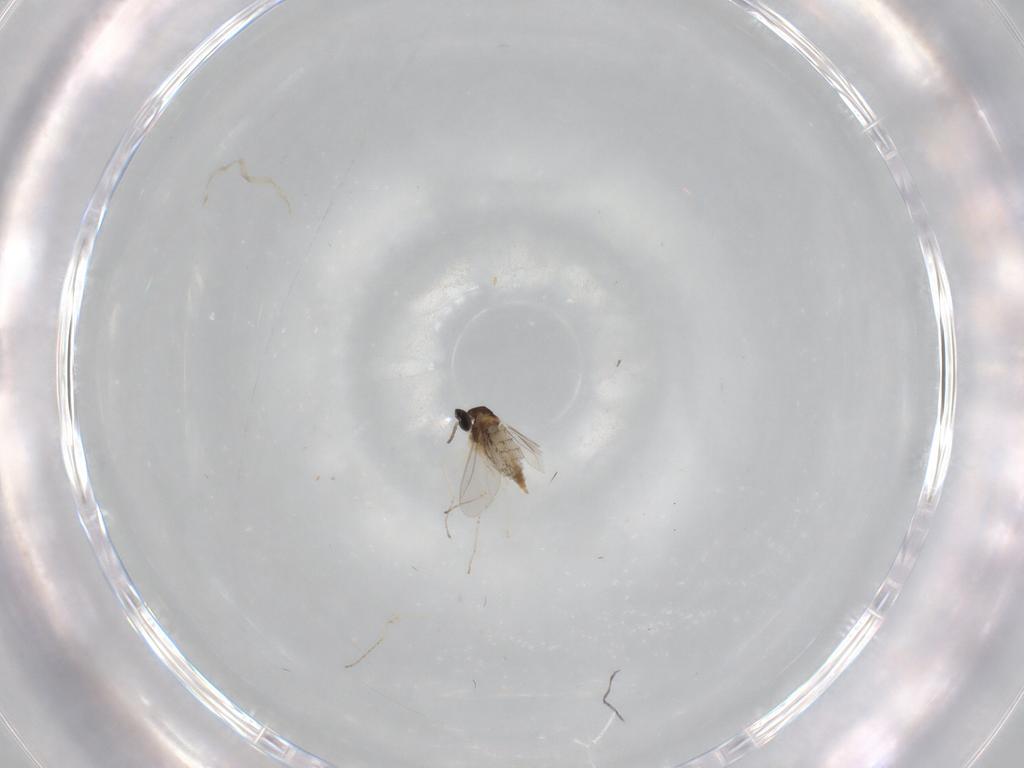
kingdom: Animalia
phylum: Arthropoda
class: Insecta
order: Diptera
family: Cecidomyiidae
